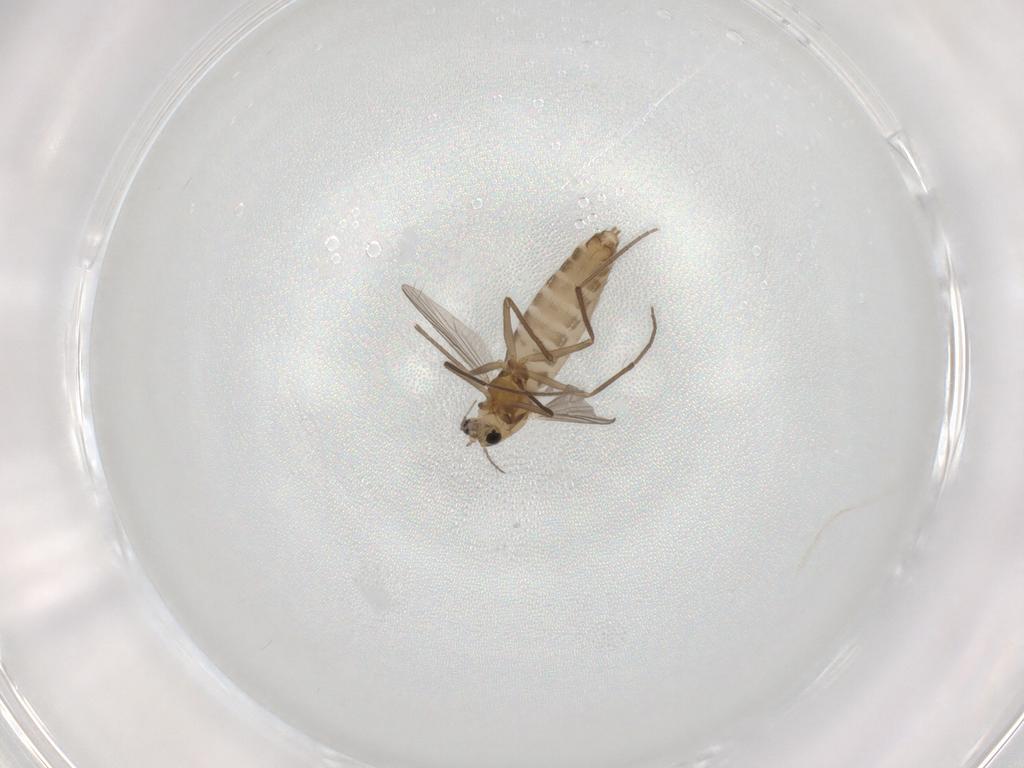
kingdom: Animalia
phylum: Arthropoda
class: Insecta
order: Diptera
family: Chironomidae
